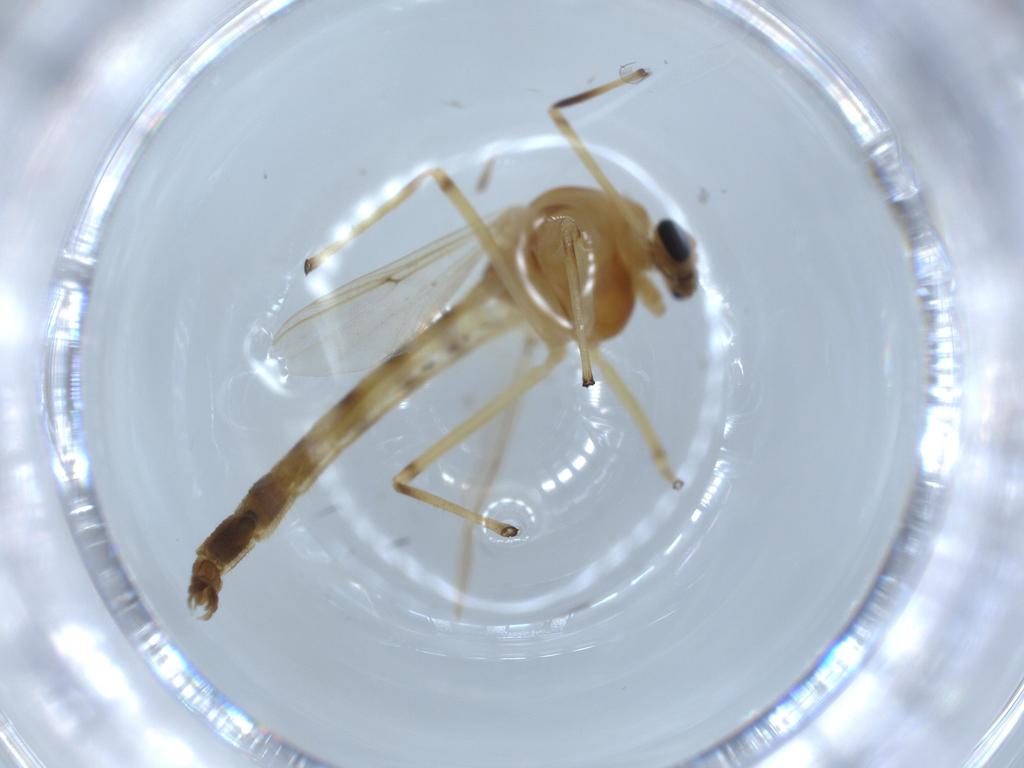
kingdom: Animalia
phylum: Arthropoda
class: Insecta
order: Diptera
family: Chironomidae
